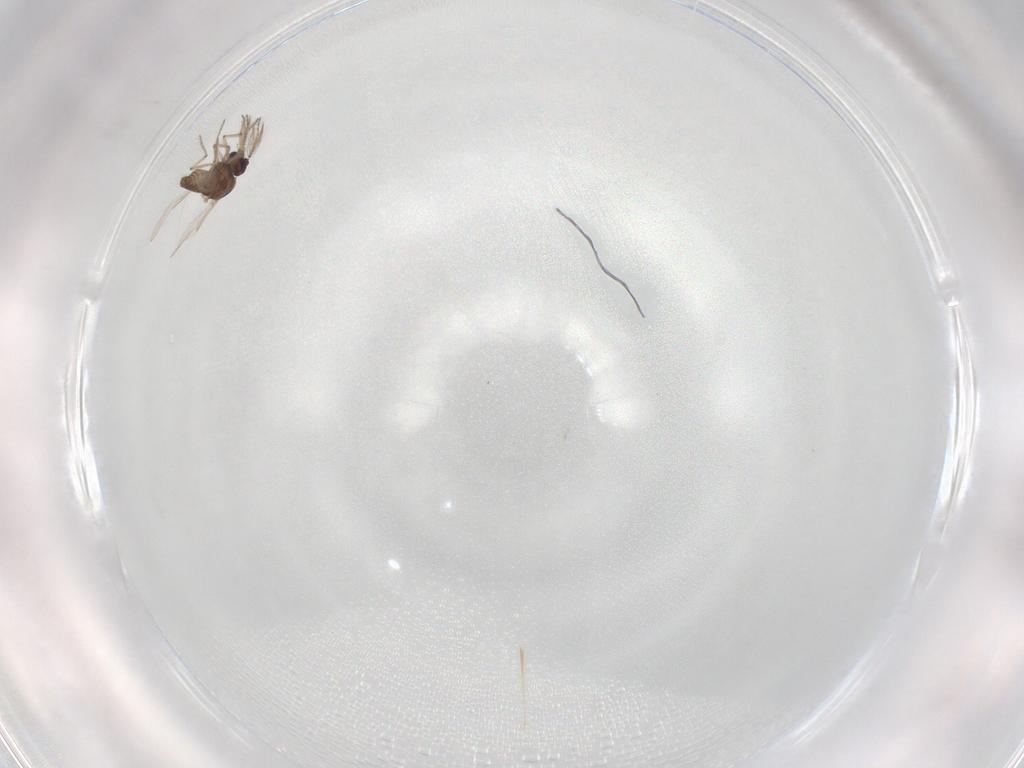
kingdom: Animalia
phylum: Arthropoda
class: Insecta
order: Diptera
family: Ceratopogonidae
